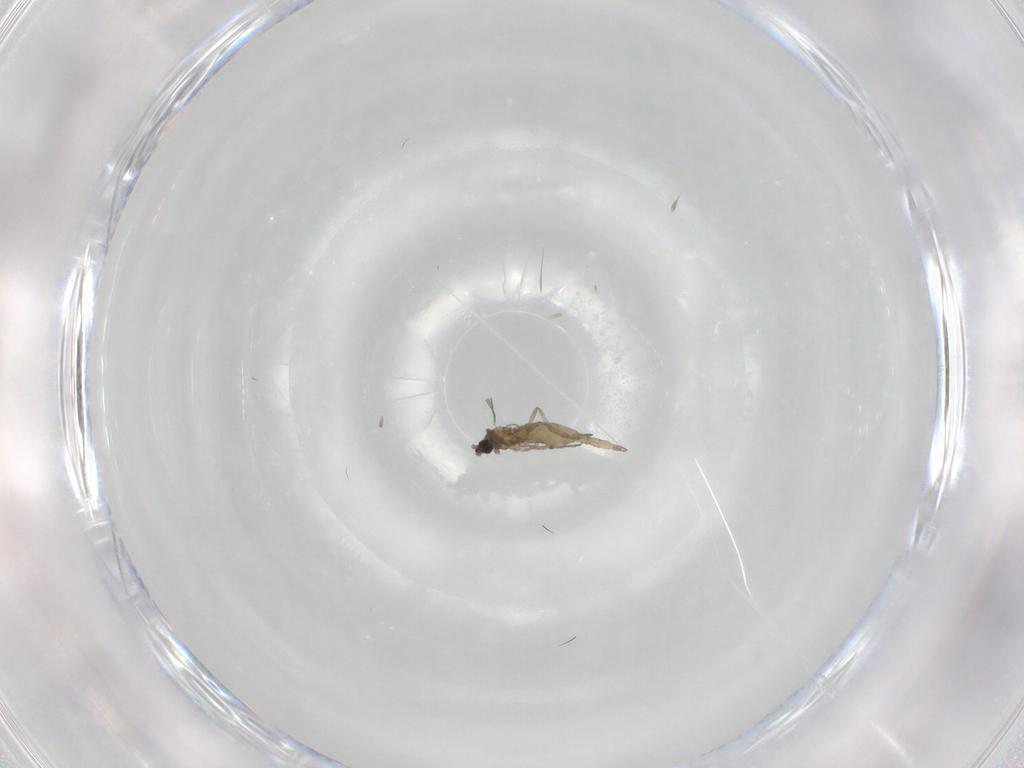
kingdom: Animalia
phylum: Arthropoda
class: Insecta
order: Diptera
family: Cecidomyiidae
